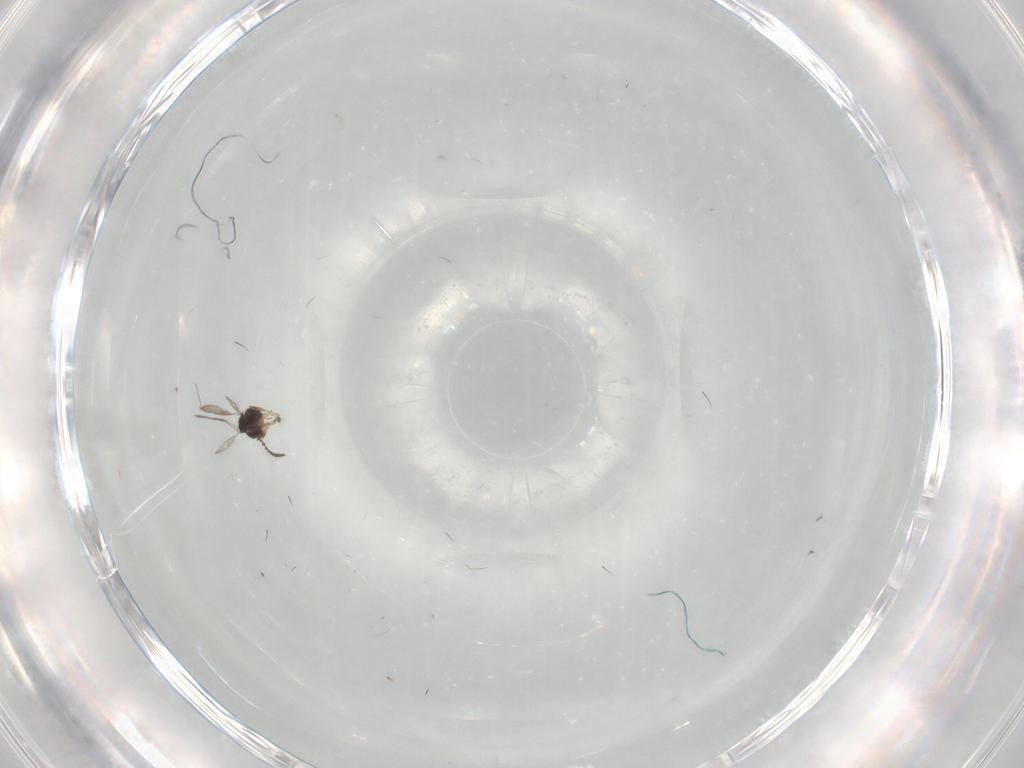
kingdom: Animalia
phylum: Arthropoda
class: Insecta
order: Hymenoptera
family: Ceraphronidae
